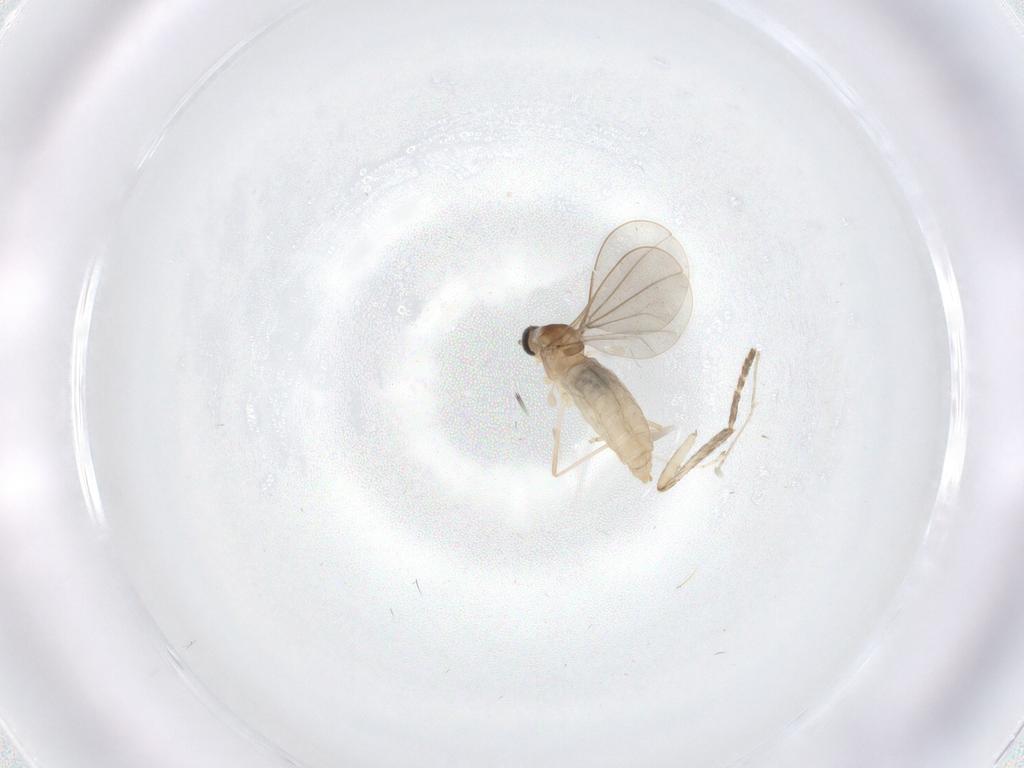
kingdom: Animalia
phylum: Arthropoda
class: Insecta
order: Diptera
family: Cecidomyiidae
